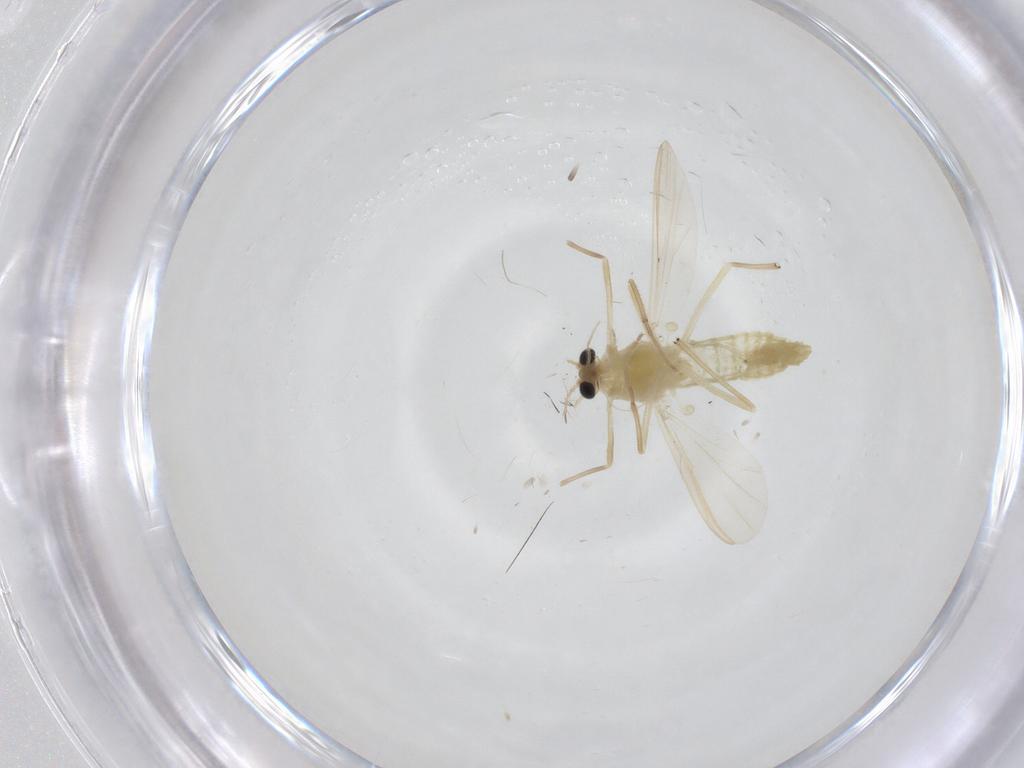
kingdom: Animalia
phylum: Arthropoda
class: Insecta
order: Diptera
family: Chironomidae
